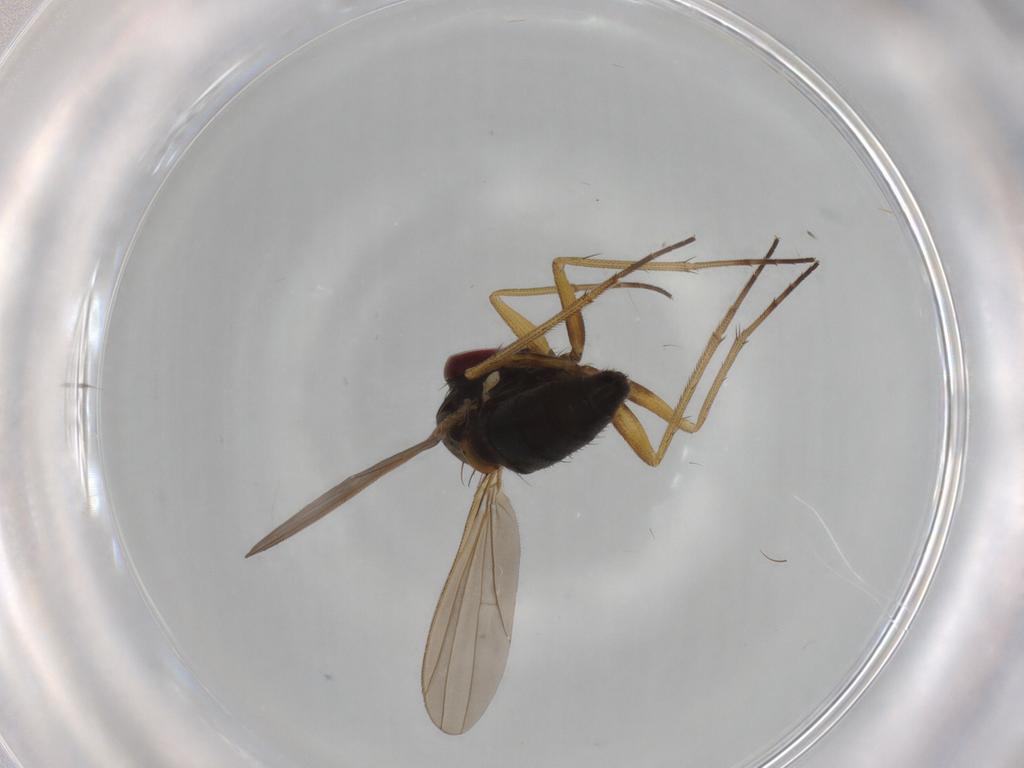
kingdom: Animalia
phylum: Arthropoda
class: Insecta
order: Diptera
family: Chironomidae
